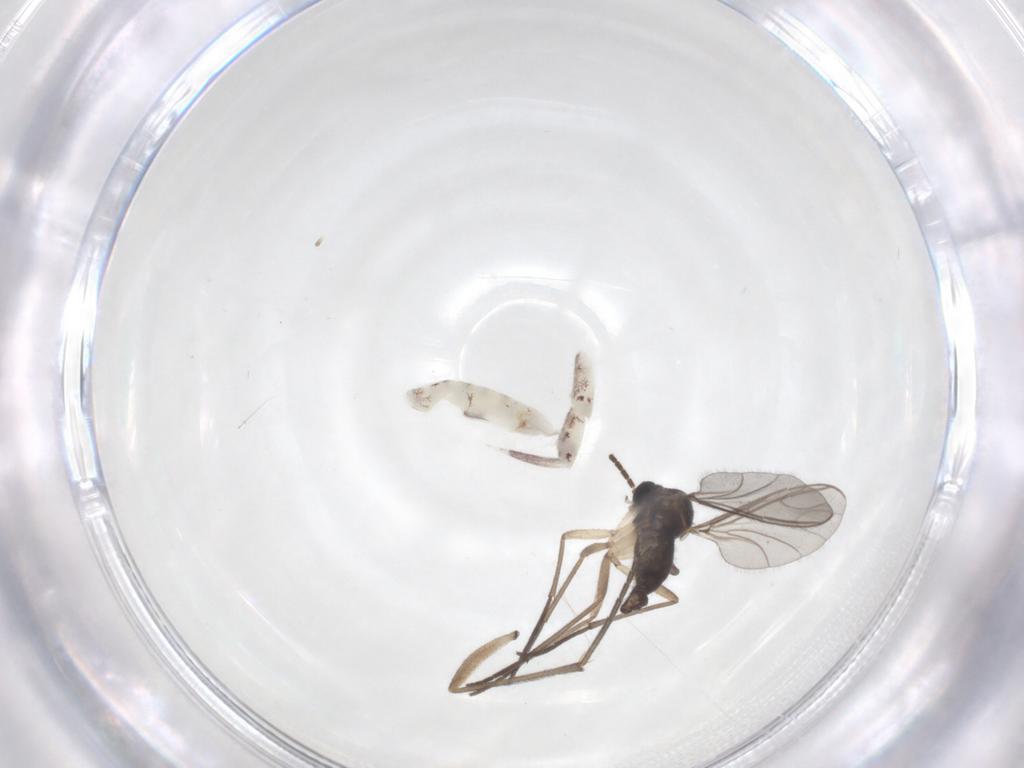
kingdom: Animalia
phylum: Arthropoda
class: Insecta
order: Diptera
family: Sciaridae
